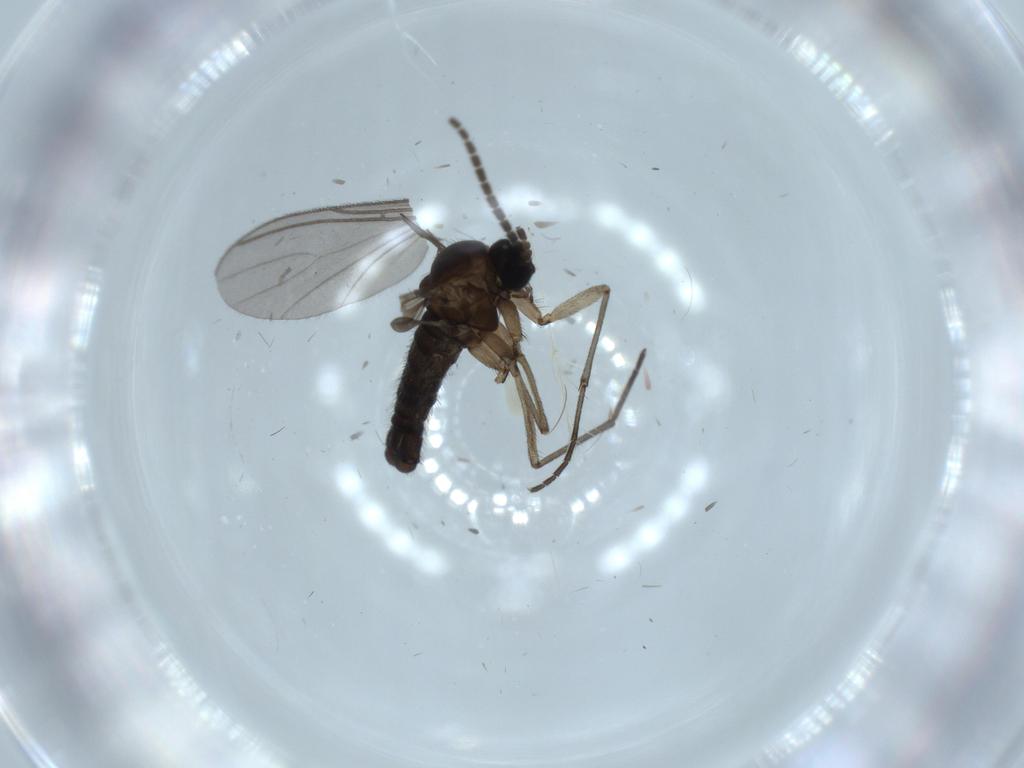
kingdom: Animalia
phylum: Arthropoda
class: Insecta
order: Diptera
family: Sciaridae
